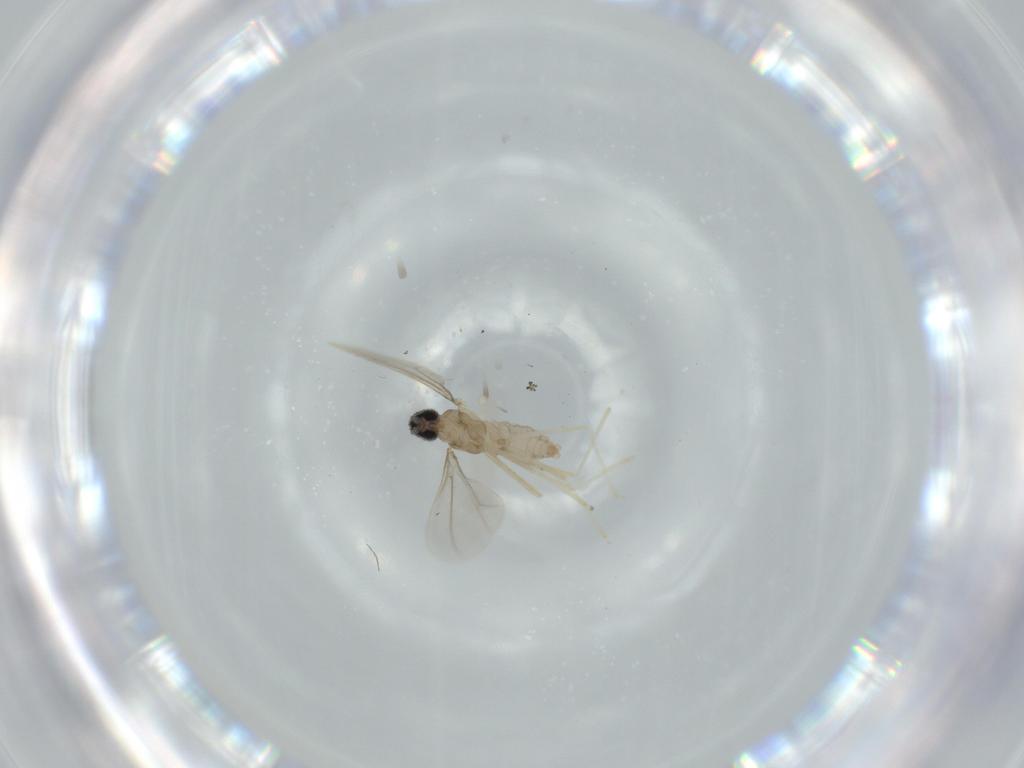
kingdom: Animalia
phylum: Arthropoda
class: Insecta
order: Diptera
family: Cecidomyiidae
